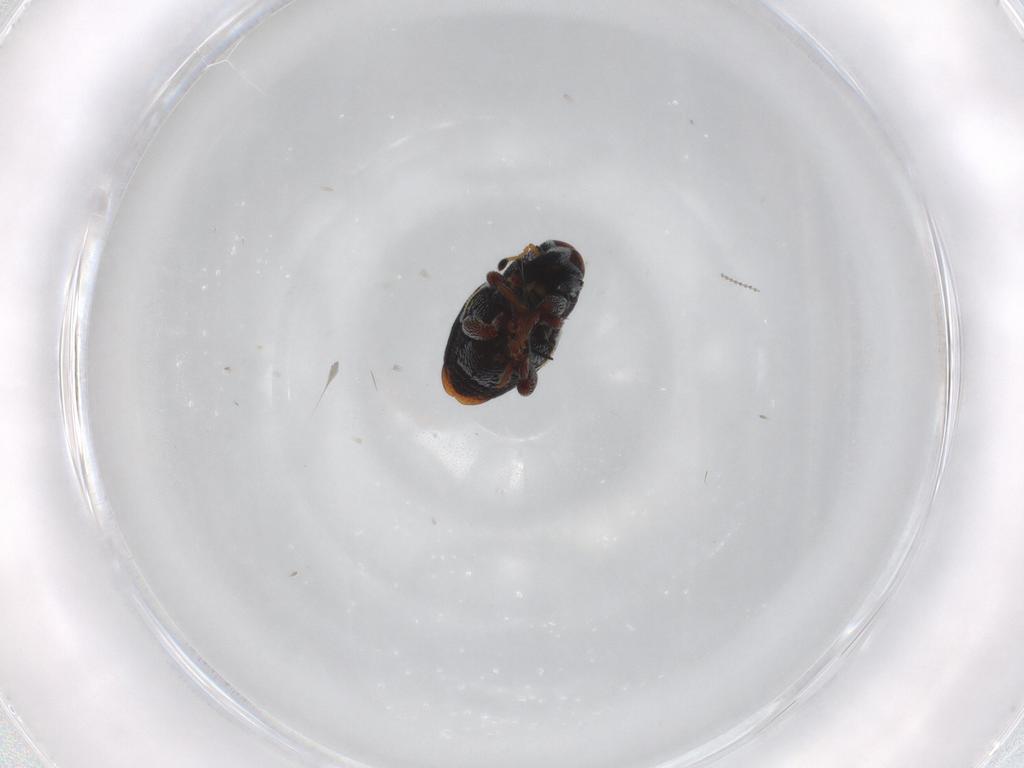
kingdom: Animalia
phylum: Arthropoda
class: Insecta
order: Coleoptera
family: Curculionidae
